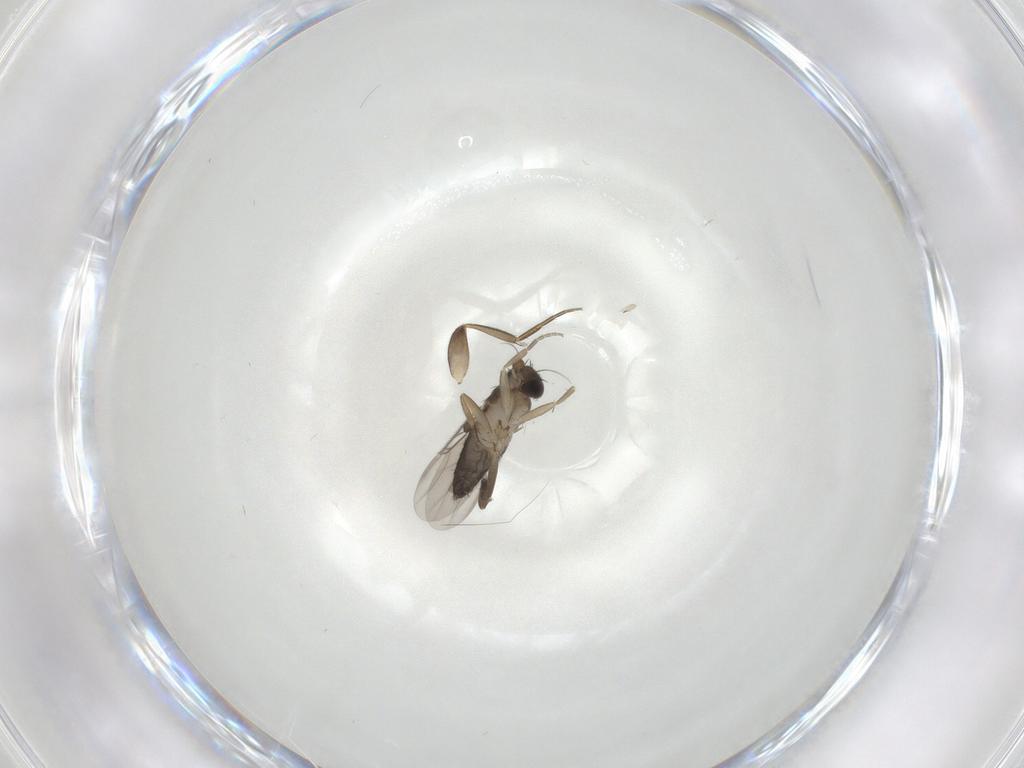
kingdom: Animalia
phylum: Arthropoda
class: Insecta
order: Diptera
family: Phoridae
